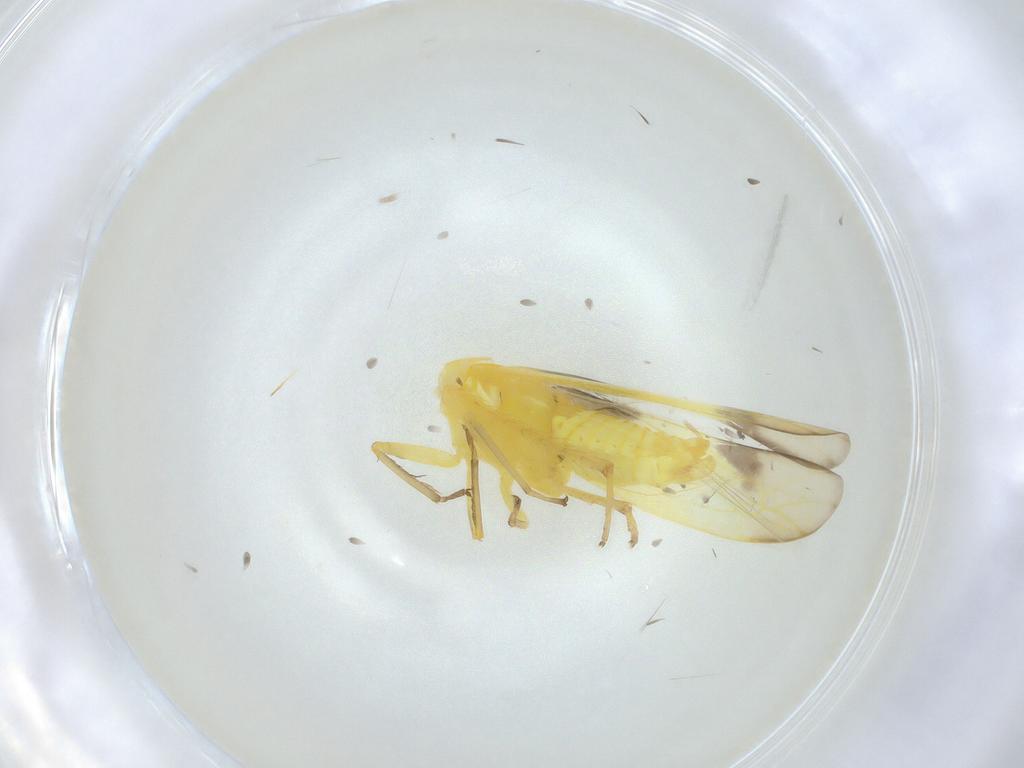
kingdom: Animalia
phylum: Arthropoda
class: Insecta
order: Hemiptera
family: Cicadellidae
